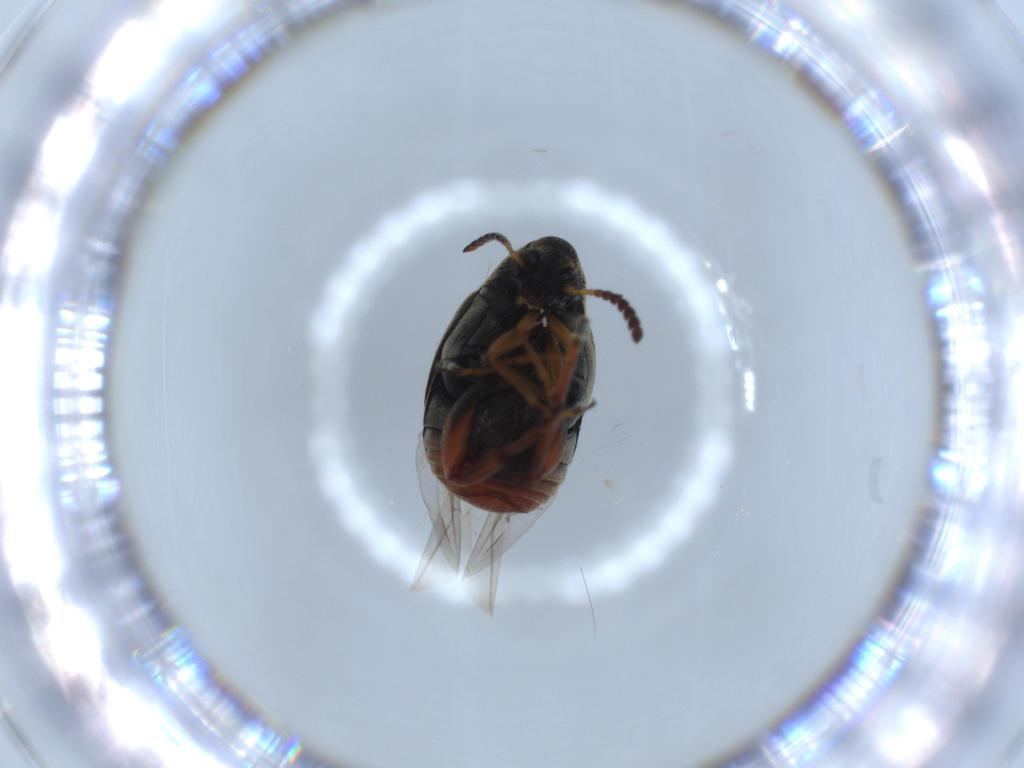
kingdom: Animalia
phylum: Arthropoda
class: Insecta
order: Coleoptera
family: Chrysomelidae
